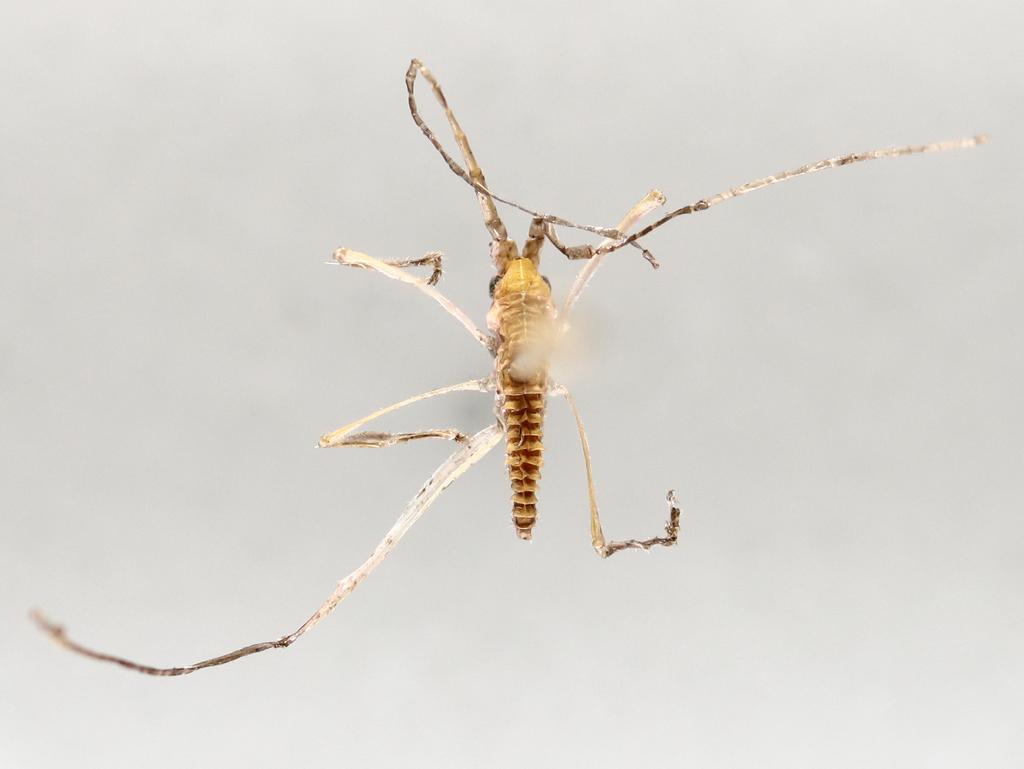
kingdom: Animalia
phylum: Arthropoda
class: Insecta
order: Diptera
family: Chironomidae
